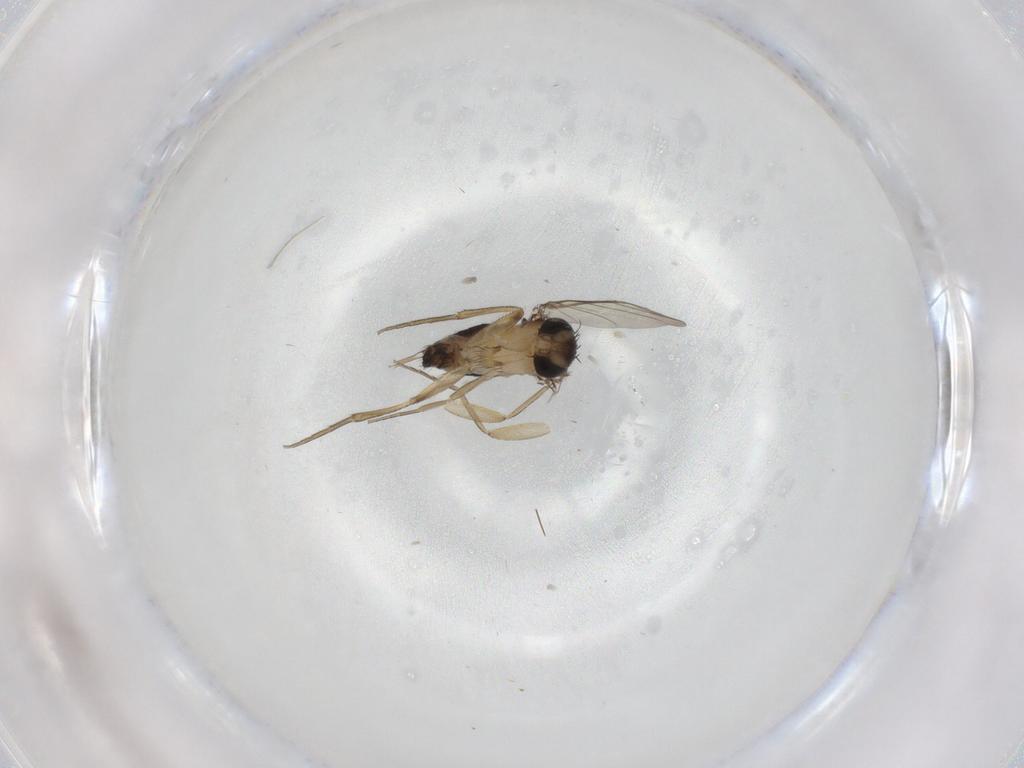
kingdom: Animalia
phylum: Arthropoda
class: Insecta
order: Diptera
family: Phoridae
